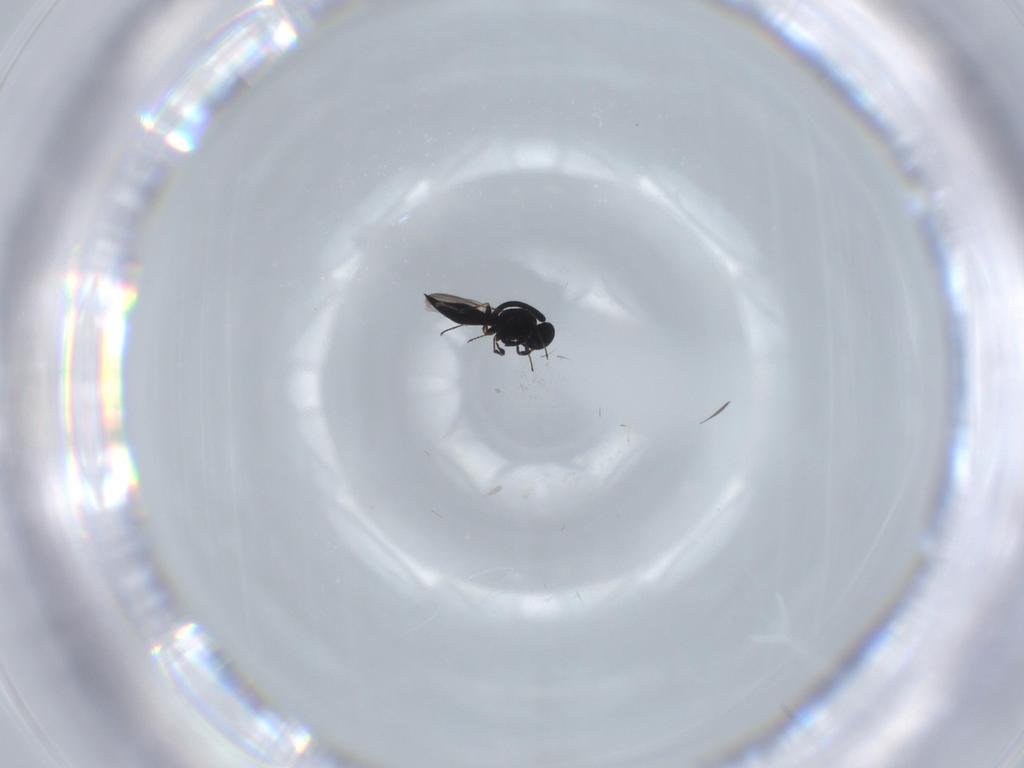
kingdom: Animalia
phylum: Arthropoda
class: Insecta
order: Hymenoptera
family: Platygastridae
